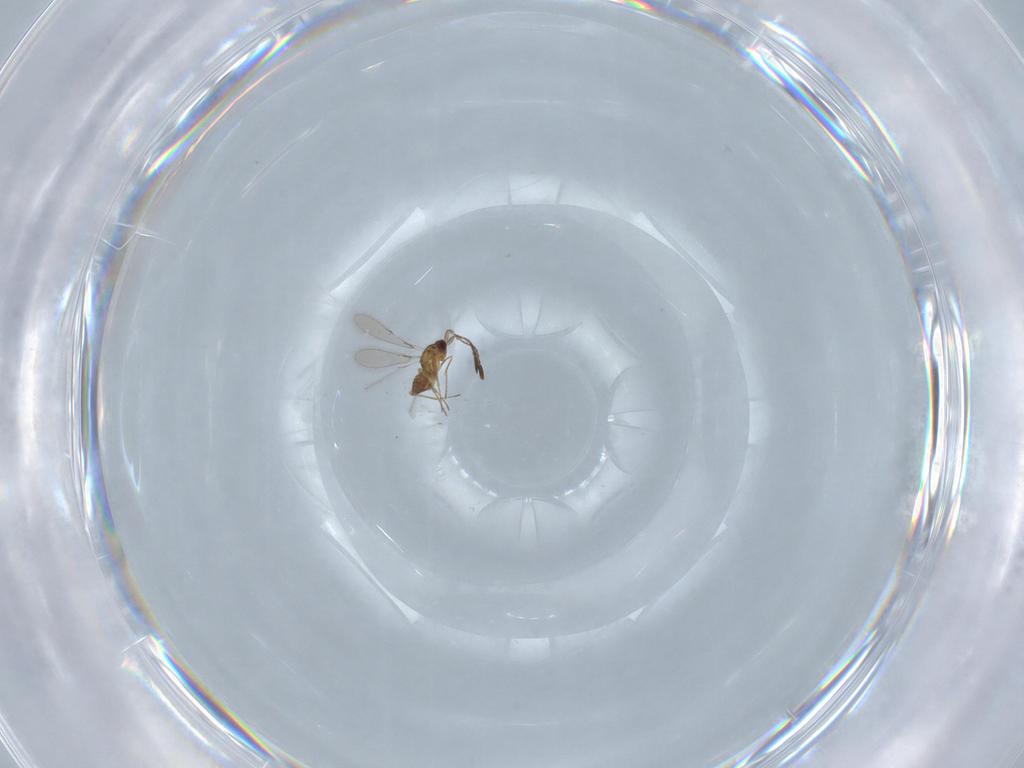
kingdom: Animalia
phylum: Arthropoda
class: Insecta
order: Hymenoptera
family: Mymaridae
